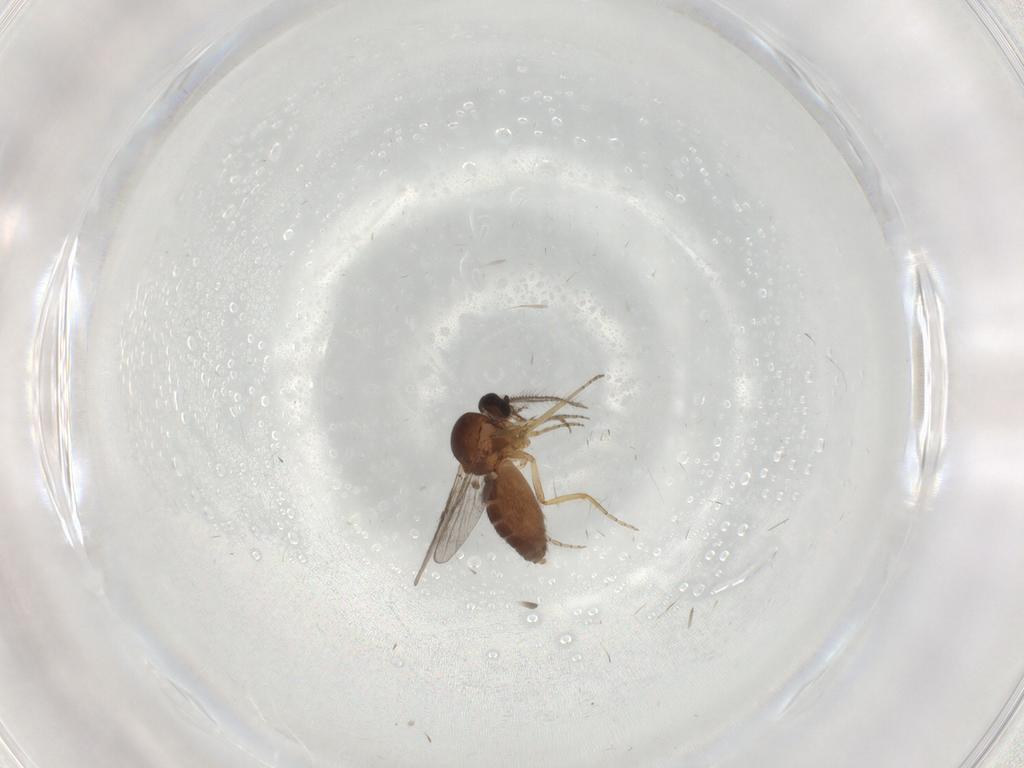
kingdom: Animalia
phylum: Arthropoda
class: Insecta
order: Diptera
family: Ceratopogonidae
